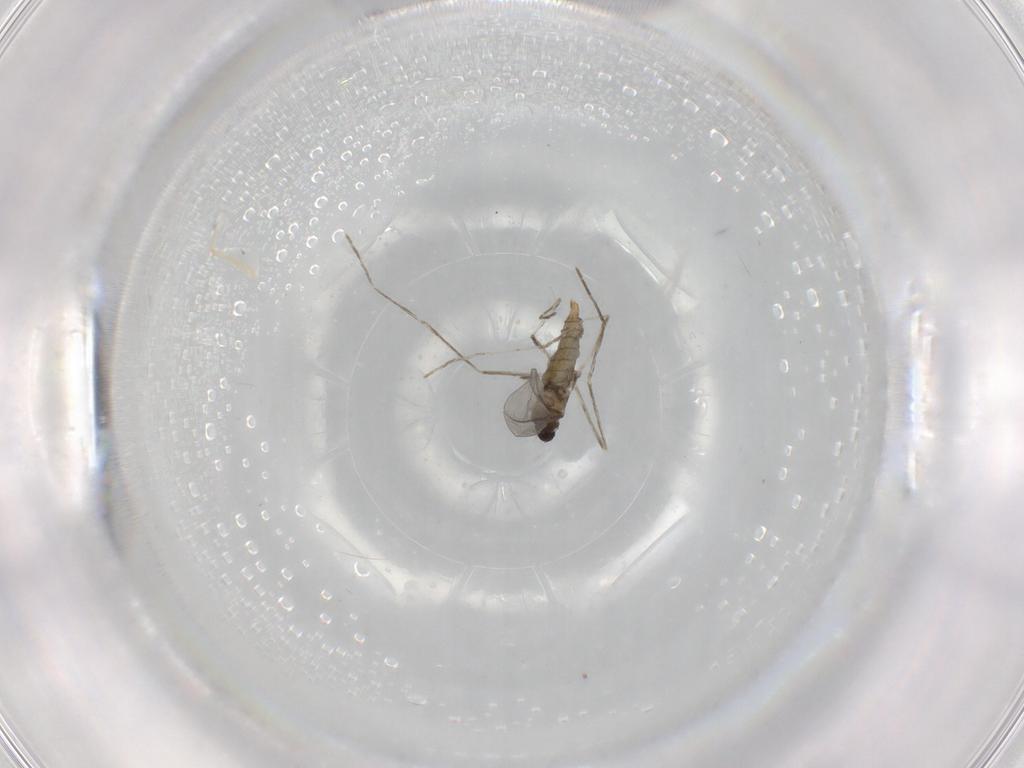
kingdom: Animalia
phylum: Arthropoda
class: Insecta
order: Diptera
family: Cecidomyiidae
